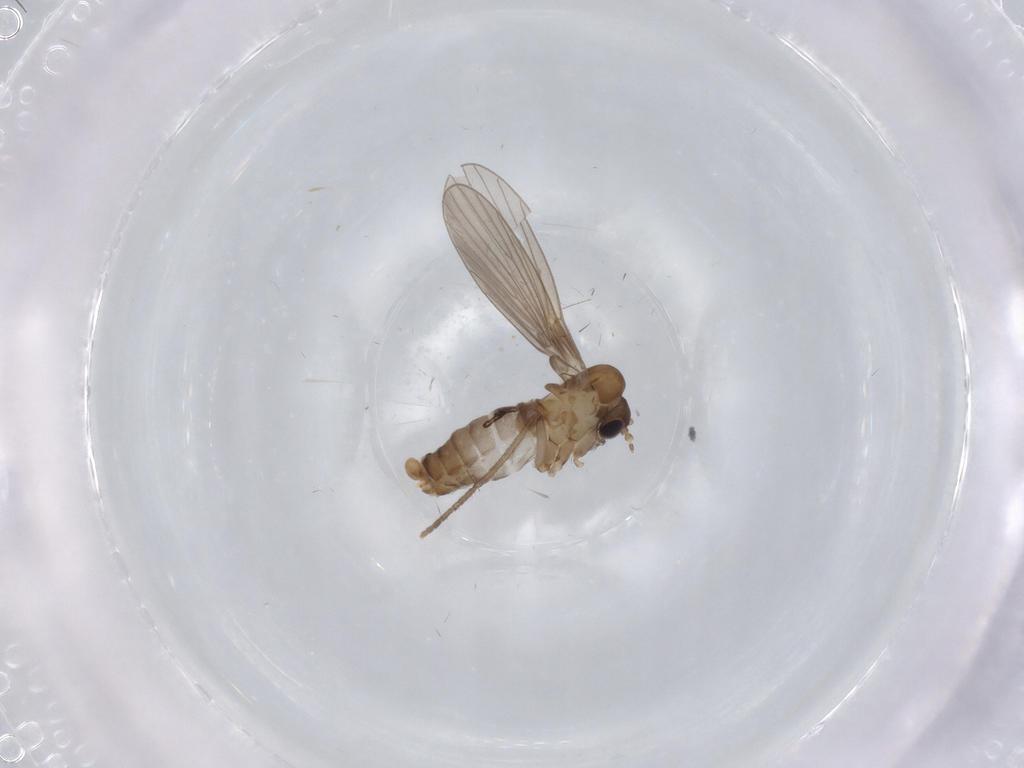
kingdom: Animalia
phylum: Arthropoda
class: Insecta
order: Diptera
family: Psychodidae
